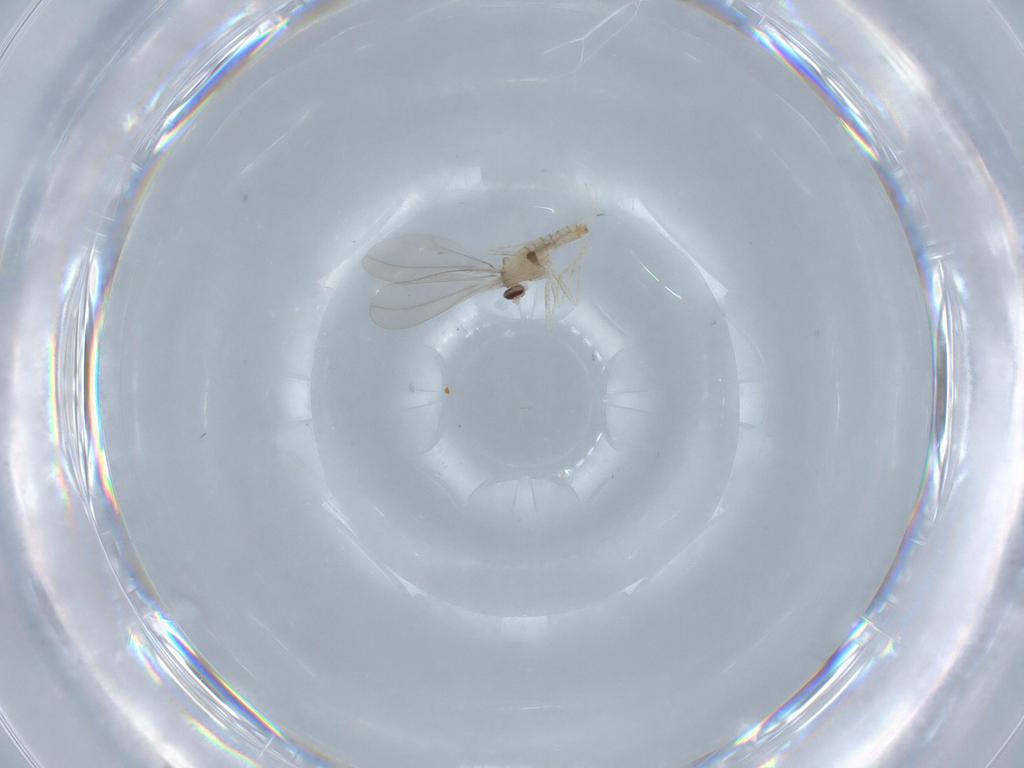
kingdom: Animalia
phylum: Arthropoda
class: Insecta
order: Diptera
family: Cecidomyiidae
